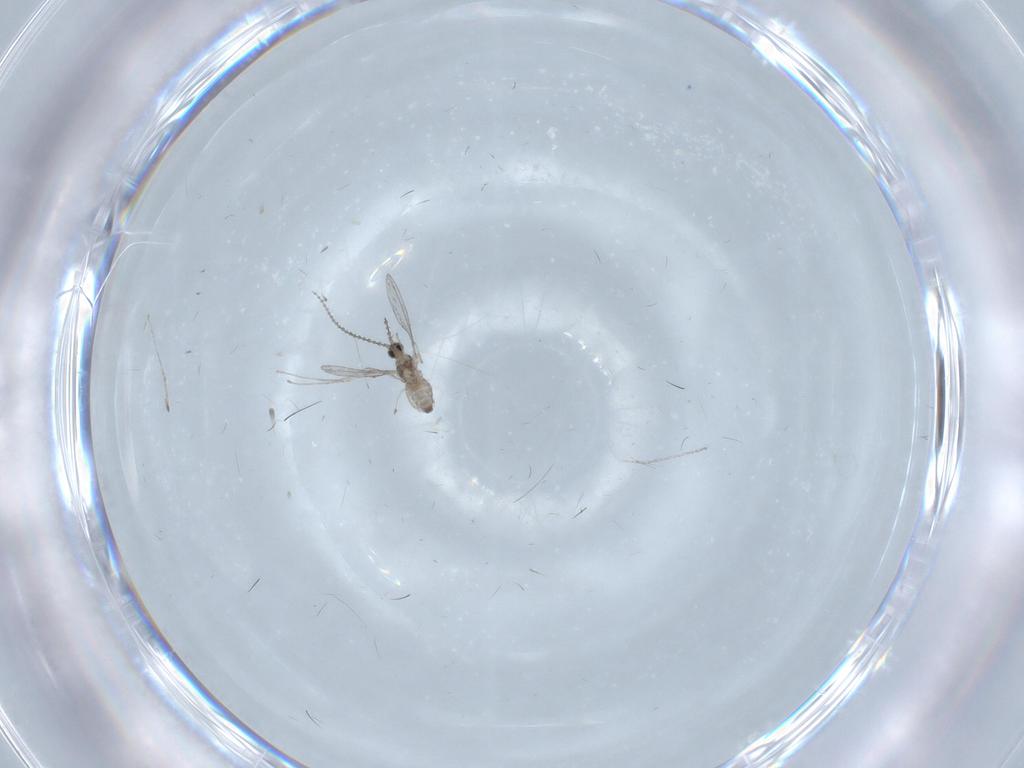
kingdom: Animalia
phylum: Arthropoda
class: Insecta
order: Diptera
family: Cecidomyiidae
